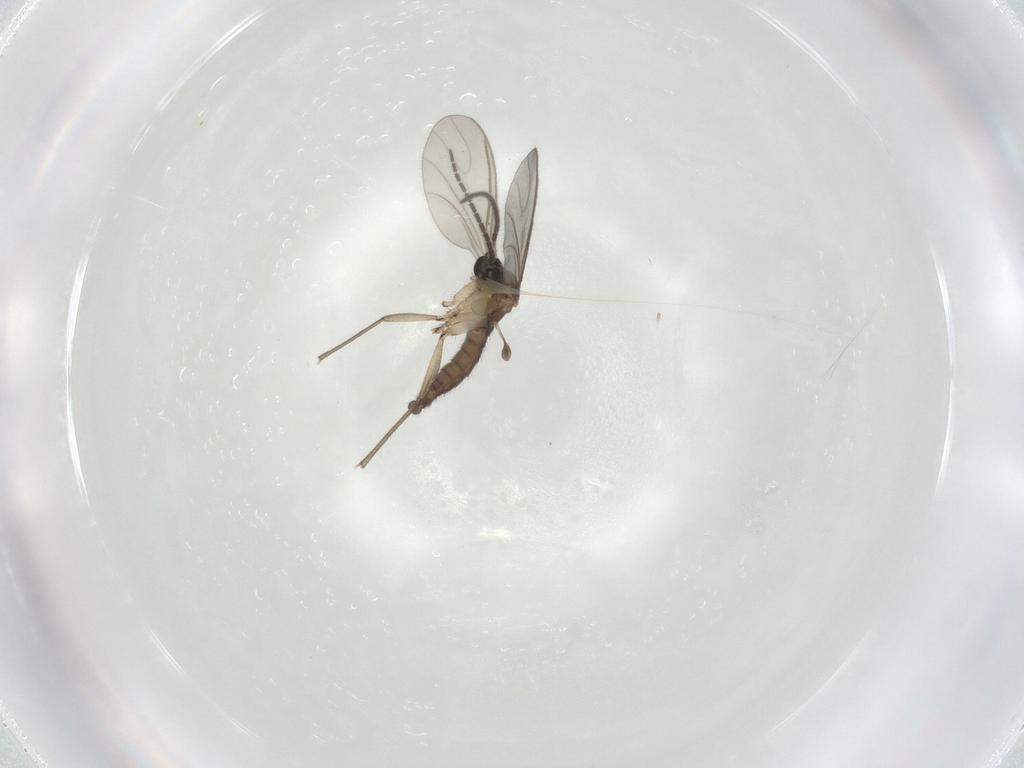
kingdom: Animalia
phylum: Arthropoda
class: Insecta
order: Diptera
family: Sciaridae
